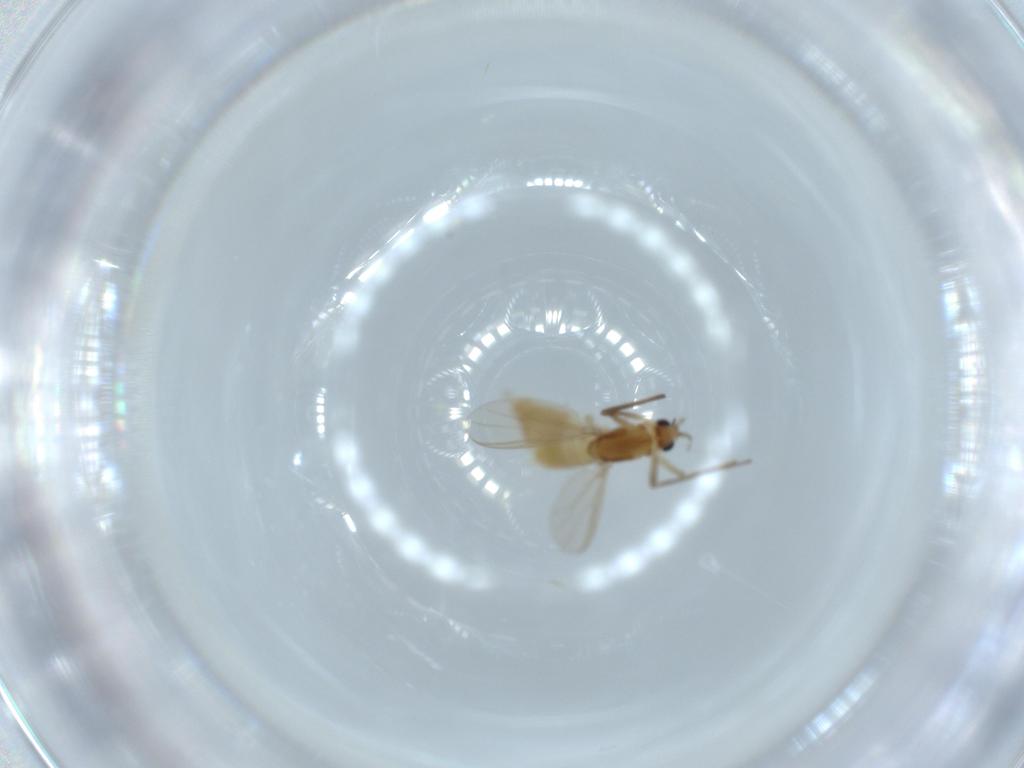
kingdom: Animalia
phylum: Arthropoda
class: Insecta
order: Diptera
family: Chironomidae
